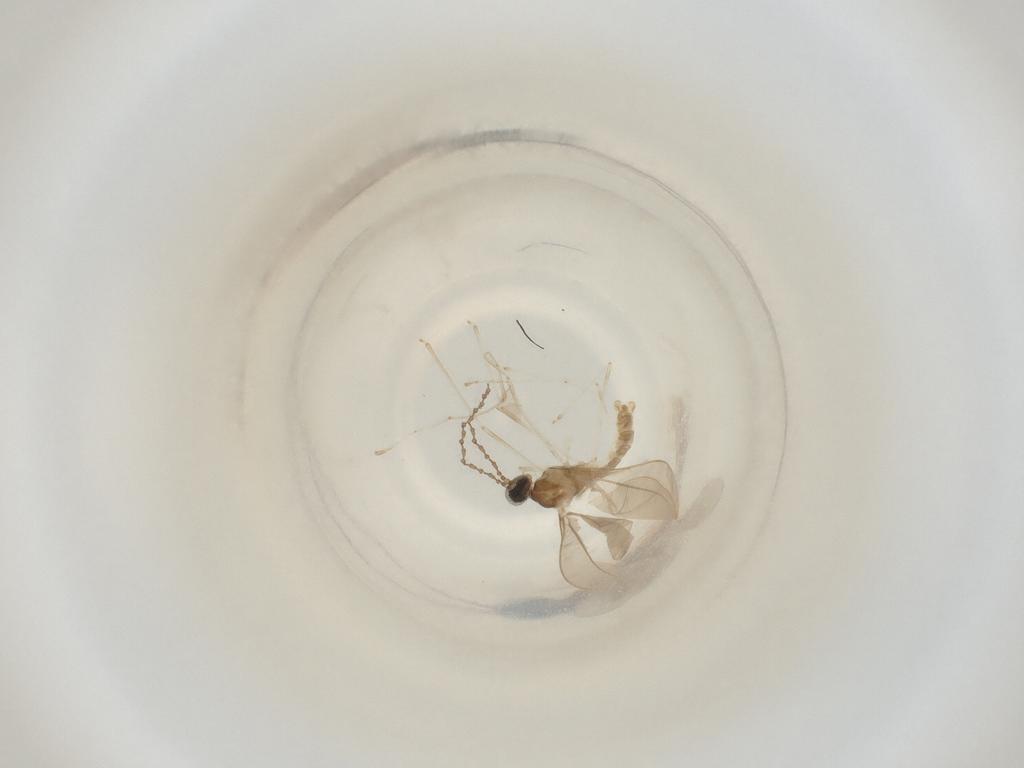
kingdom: Animalia
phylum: Arthropoda
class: Insecta
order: Diptera
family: Cecidomyiidae
